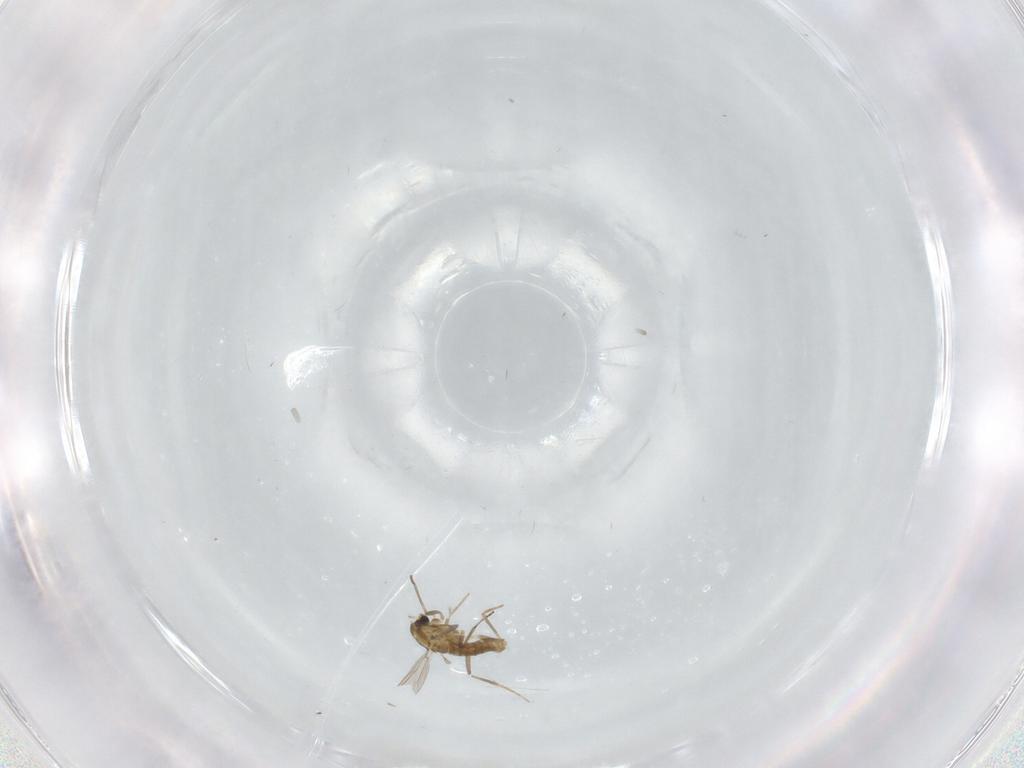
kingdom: Animalia
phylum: Arthropoda
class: Insecta
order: Diptera
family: Chironomidae
